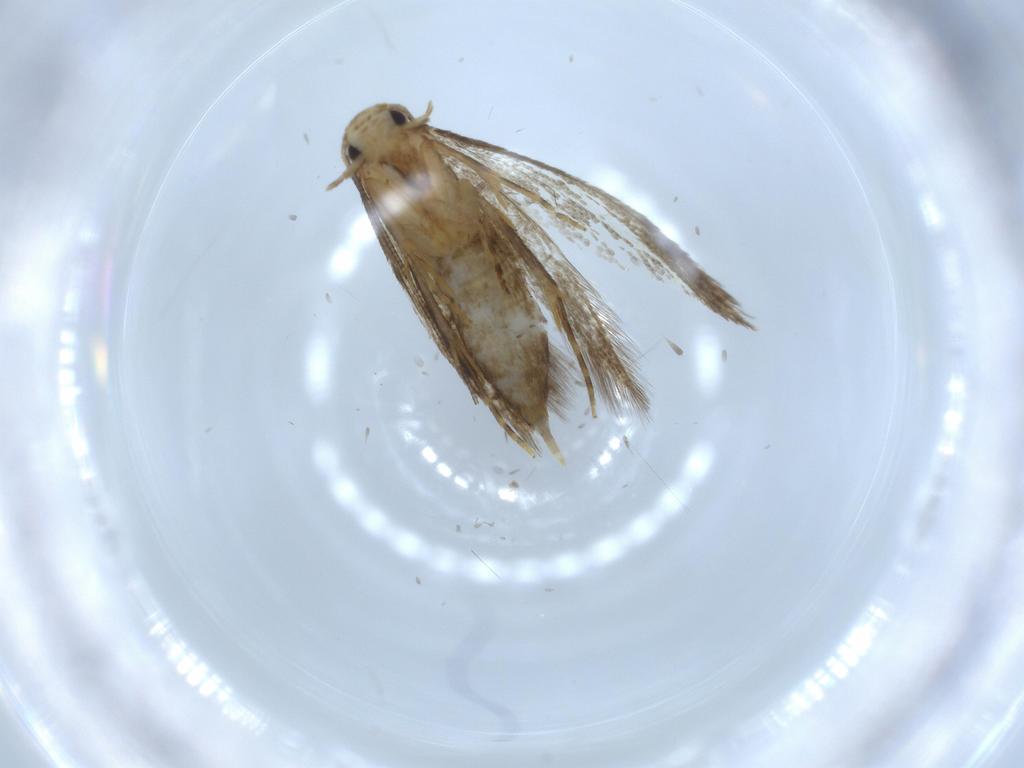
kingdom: Animalia
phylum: Arthropoda
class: Insecta
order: Lepidoptera
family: Tineidae
